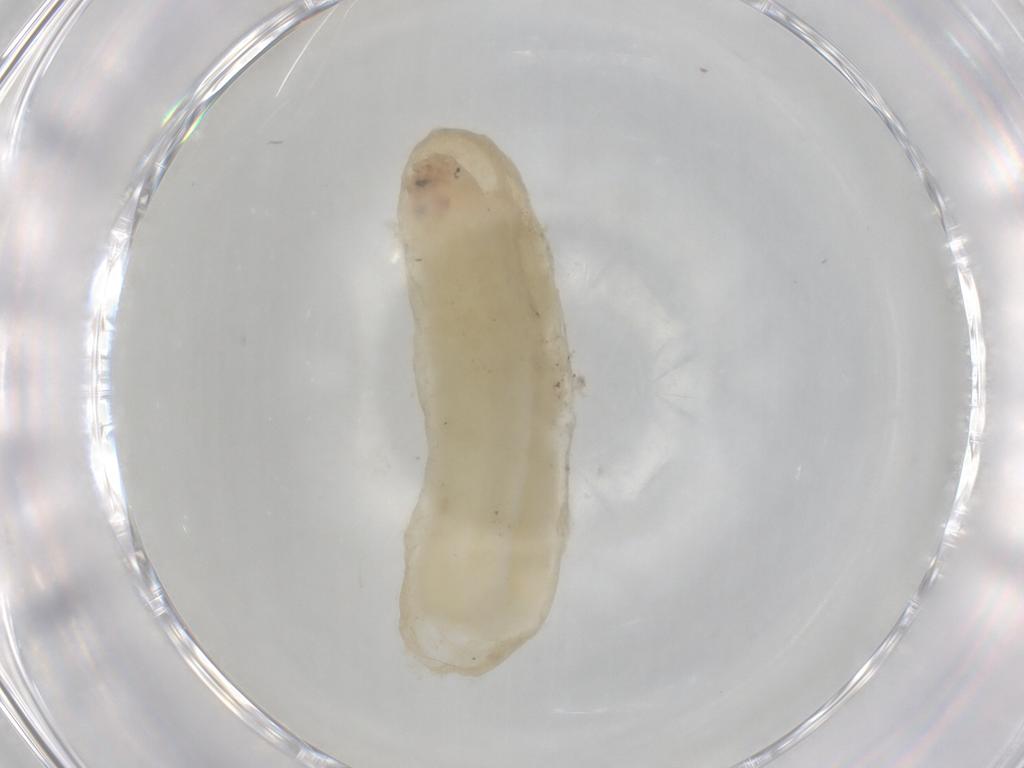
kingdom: Animalia
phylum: Arthropoda
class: Insecta
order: Diptera
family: Chironomidae
